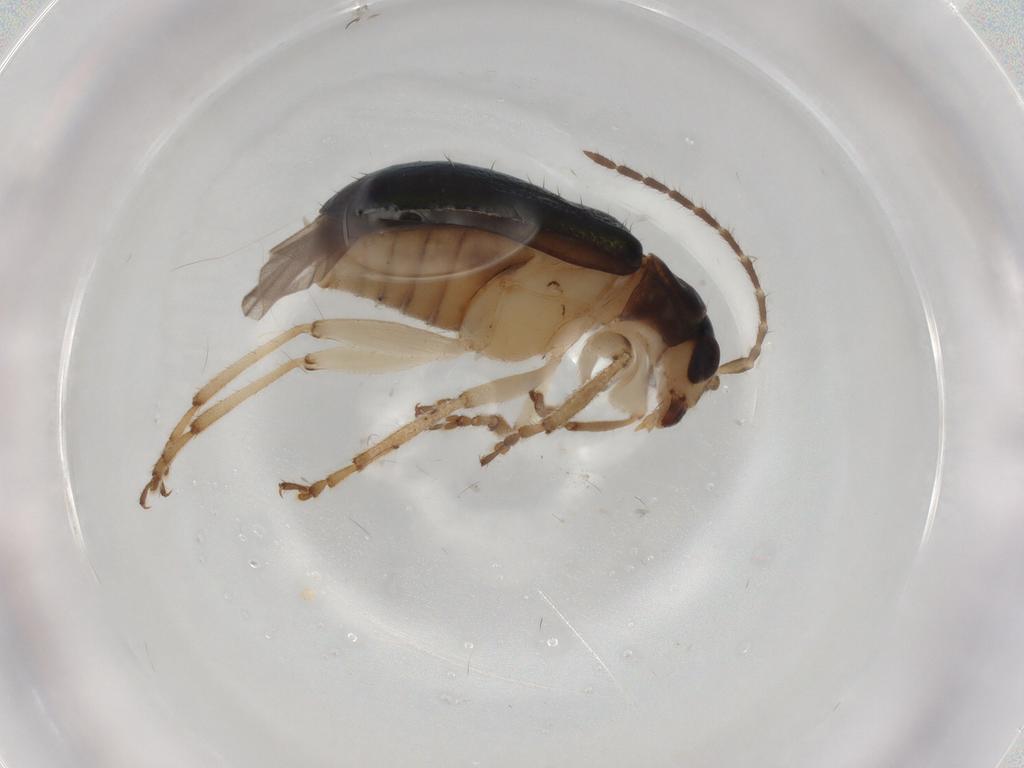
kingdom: Animalia
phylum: Arthropoda
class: Insecta
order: Coleoptera
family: Chrysomelidae
